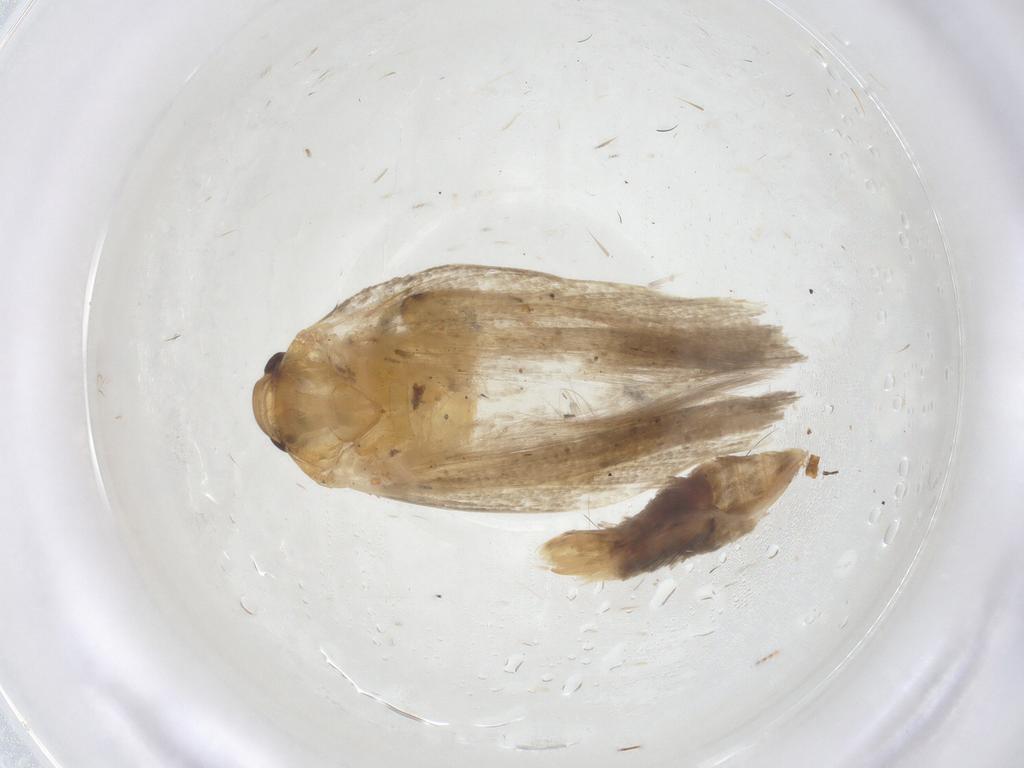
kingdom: Animalia
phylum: Arthropoda
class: Insecta
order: Lepidoptera
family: Gelechiidae
